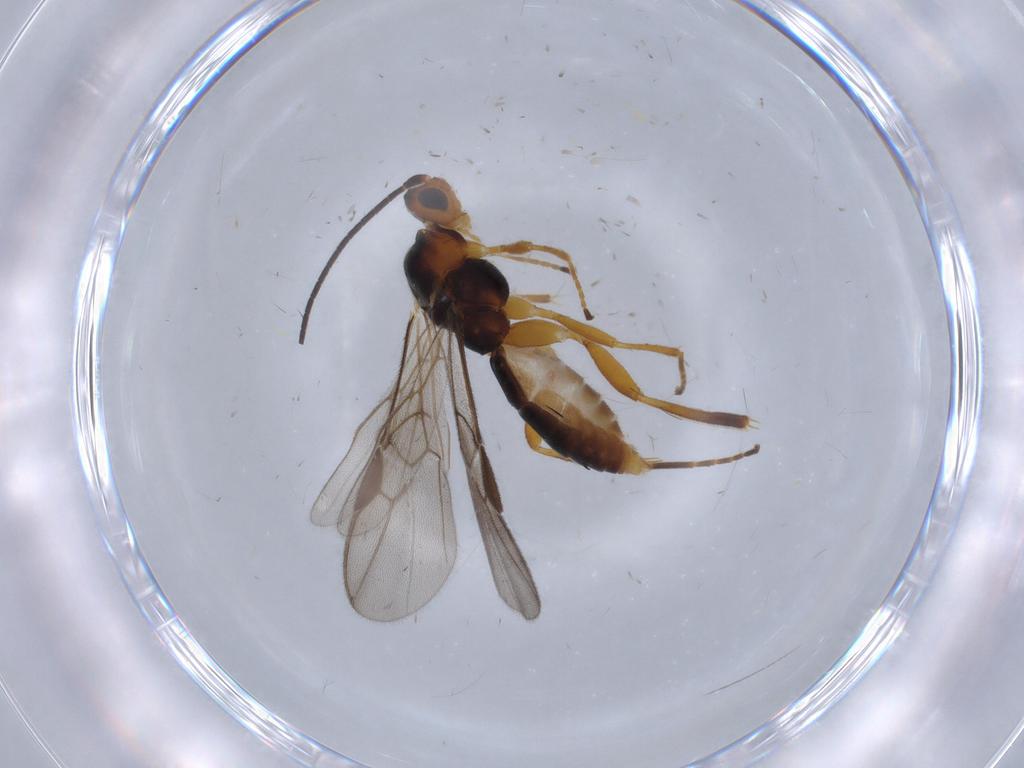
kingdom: Animalia
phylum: Arthropoda
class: Insecta
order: Hymenoptera
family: Braconidae
